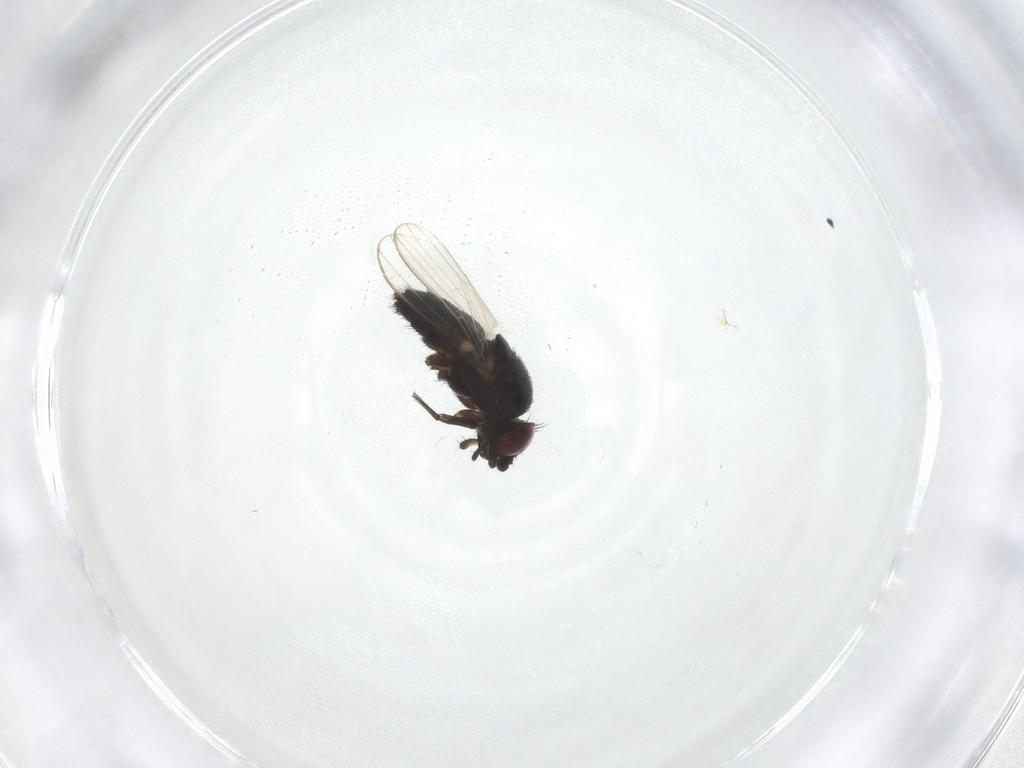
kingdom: Animalia
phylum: Arthropoda
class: Insecta
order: Diptera
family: Milichiidae
